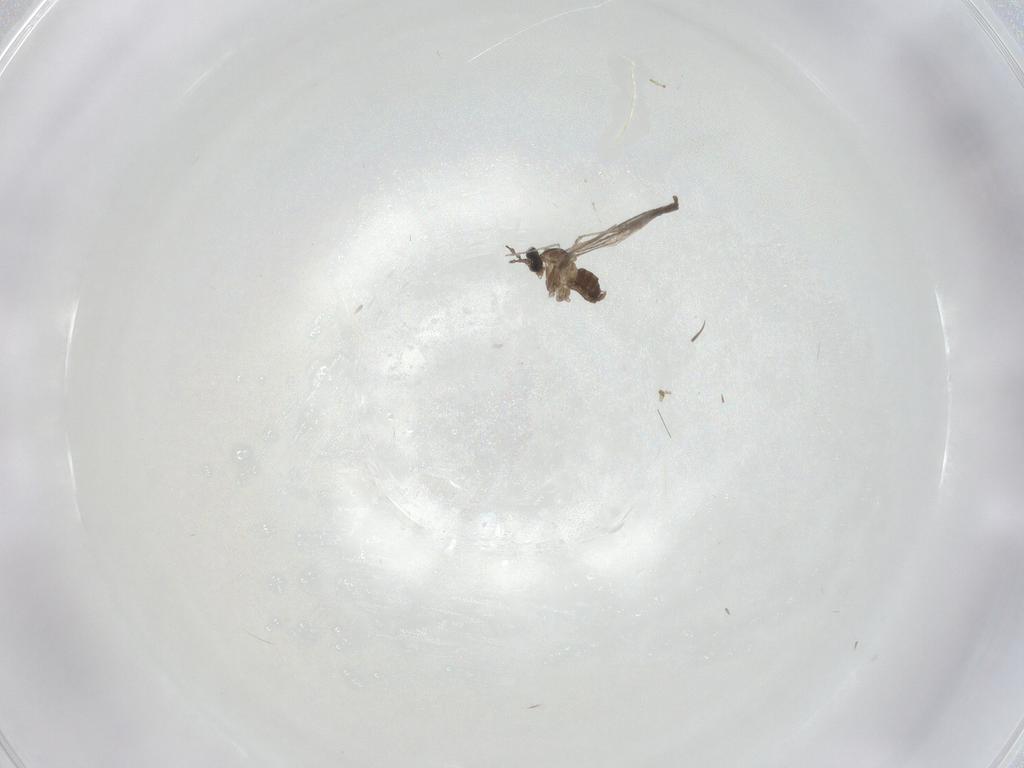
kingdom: Animalia
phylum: Arthropoda
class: Insecta
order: Diptera
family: Cecidomyiidae
